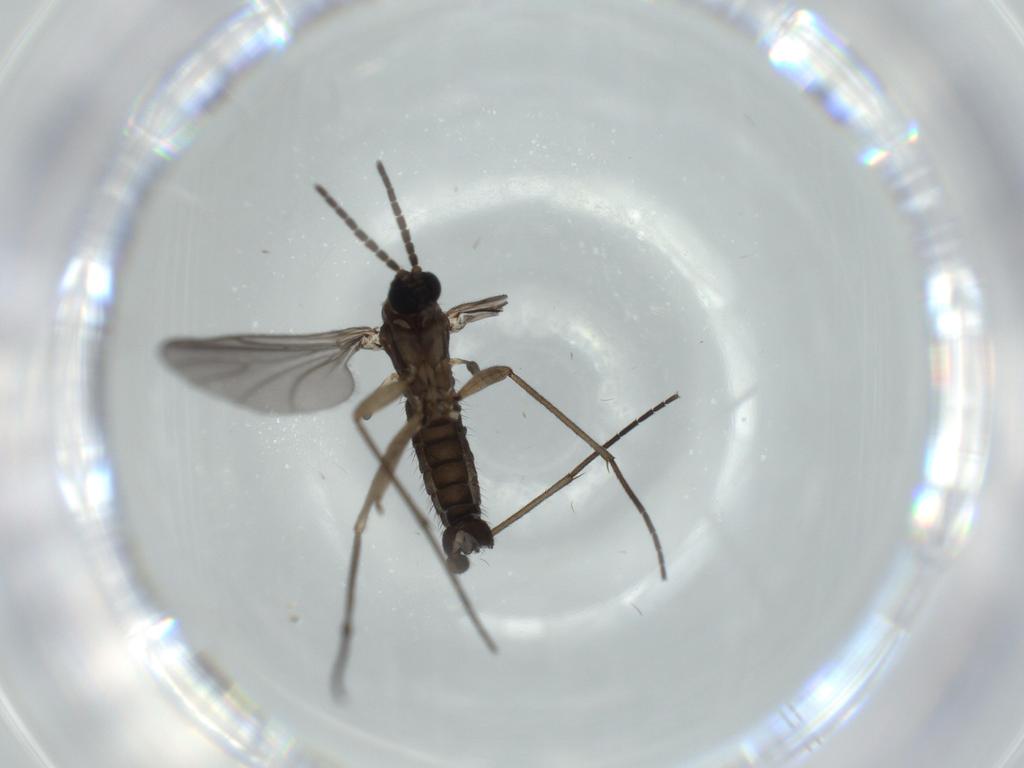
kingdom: Animalia
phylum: Arthropoda
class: Insecta
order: Diptera
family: Sciaridae
